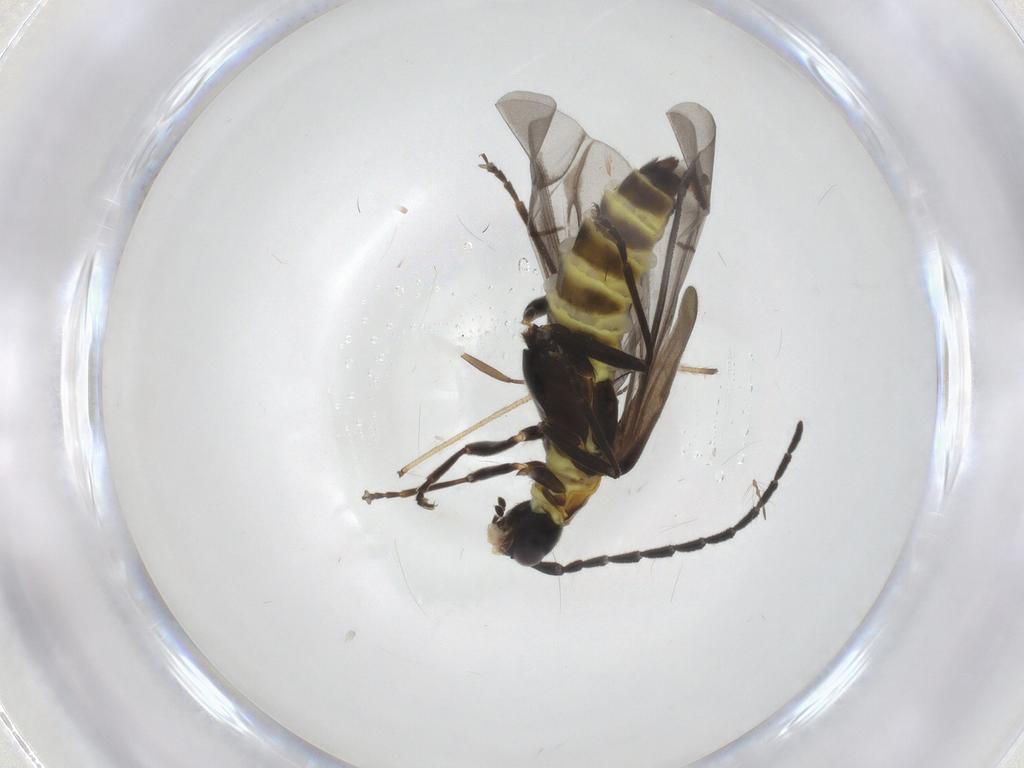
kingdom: Animalia
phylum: Arthropoda
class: Insecta
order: Coleoptera
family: Cantharidae
